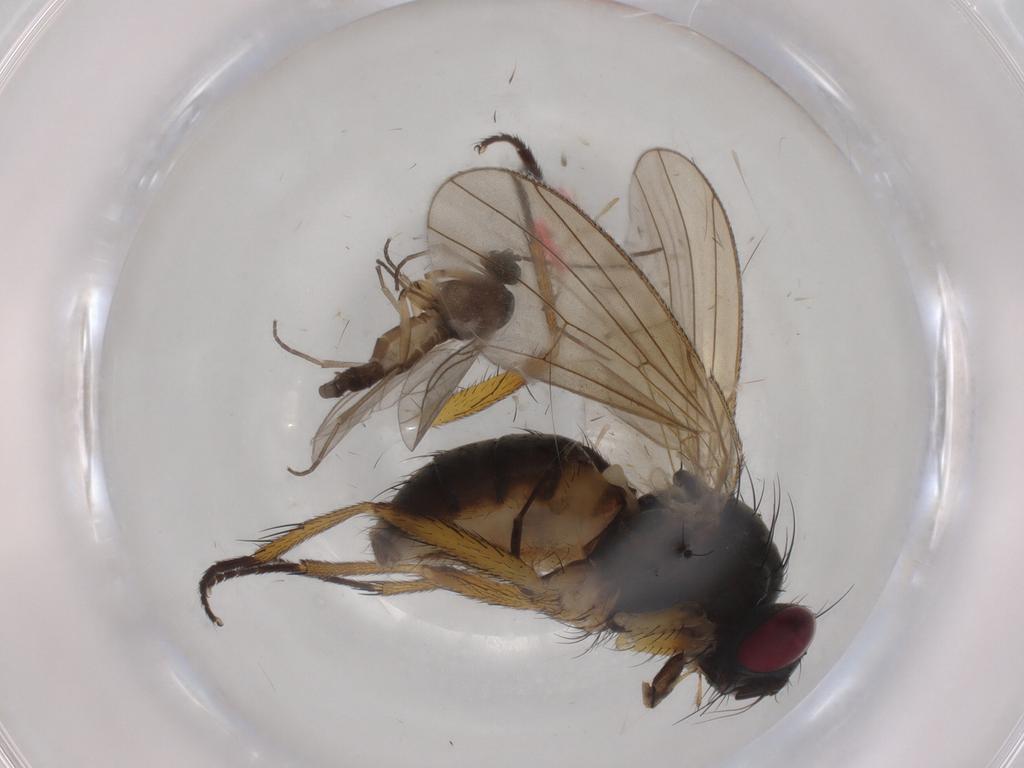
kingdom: Animalia
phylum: Arthropoda
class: Insecta
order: Diptera
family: Muscidae
